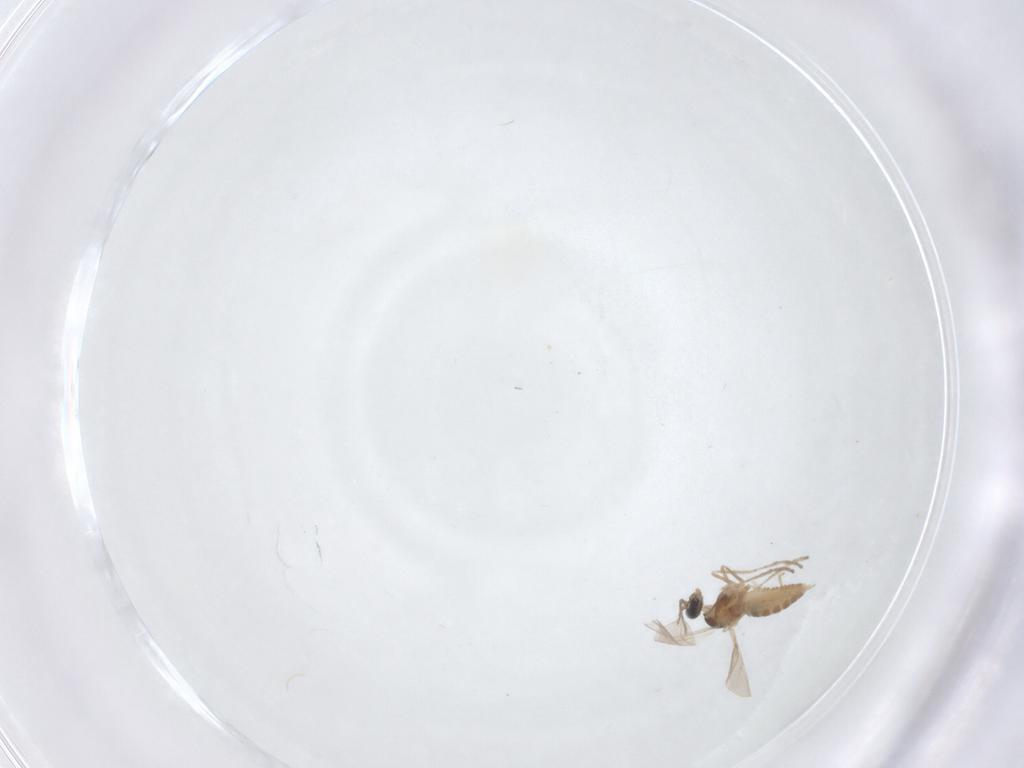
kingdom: Animalia
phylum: Arthropoda
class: Insecta
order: Diptera
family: Cecidomyiidae
